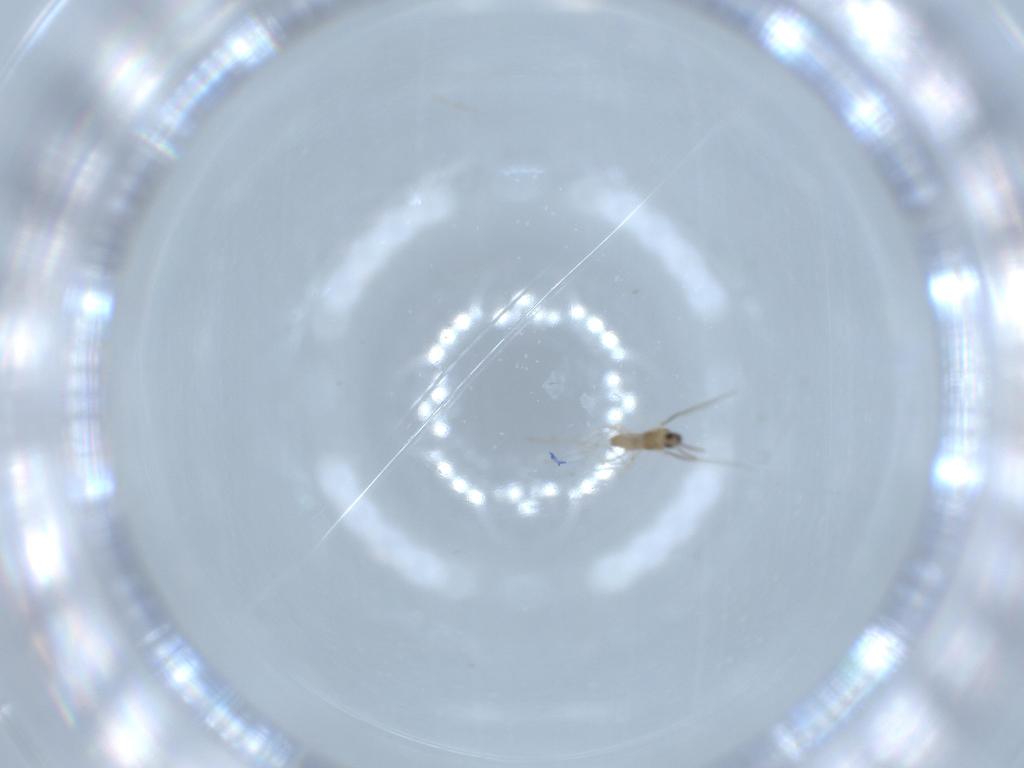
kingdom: Animalia
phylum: Arthropoda
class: Insecta
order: Diptera
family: Cecidomyiidae
